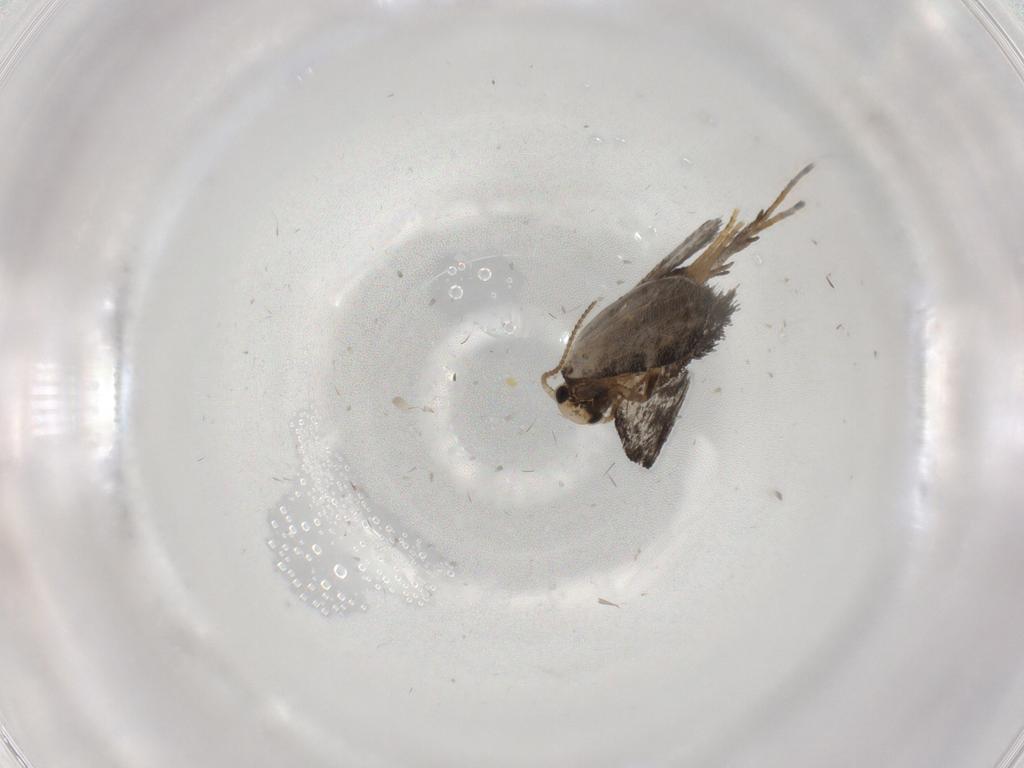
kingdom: Animalia
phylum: Arthropoda
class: Insecta
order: Lepidoptera
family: Psychidae
